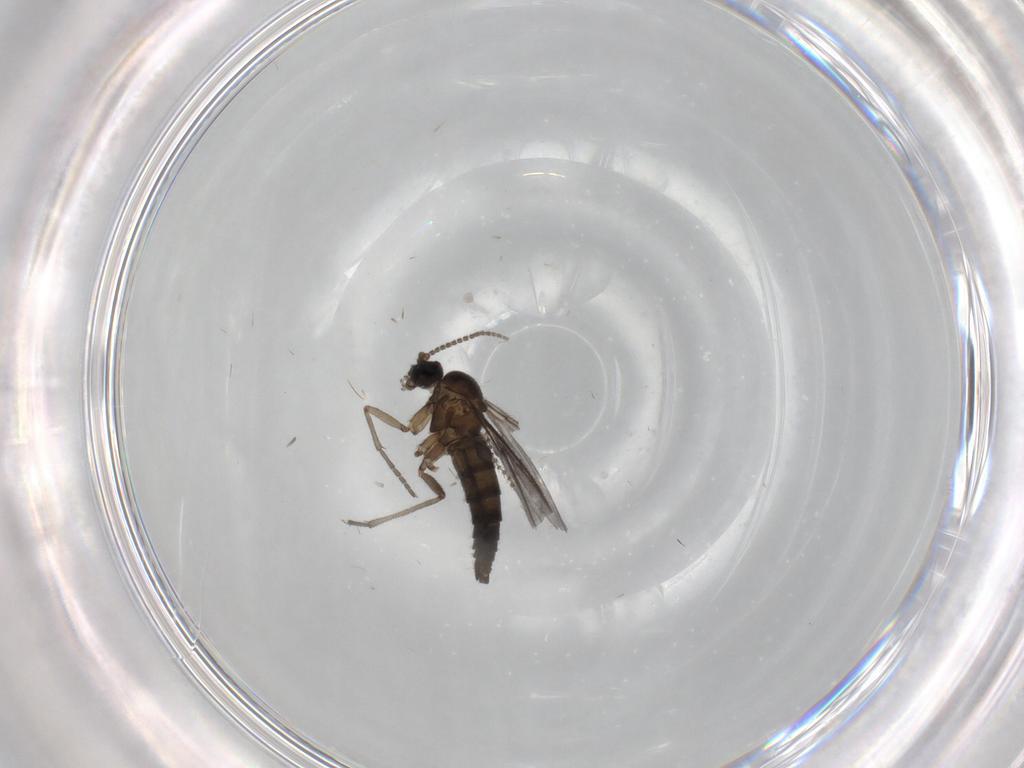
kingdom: Animalia
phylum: Arthropoda
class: Insecta
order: Diptera
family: Sciaridae
